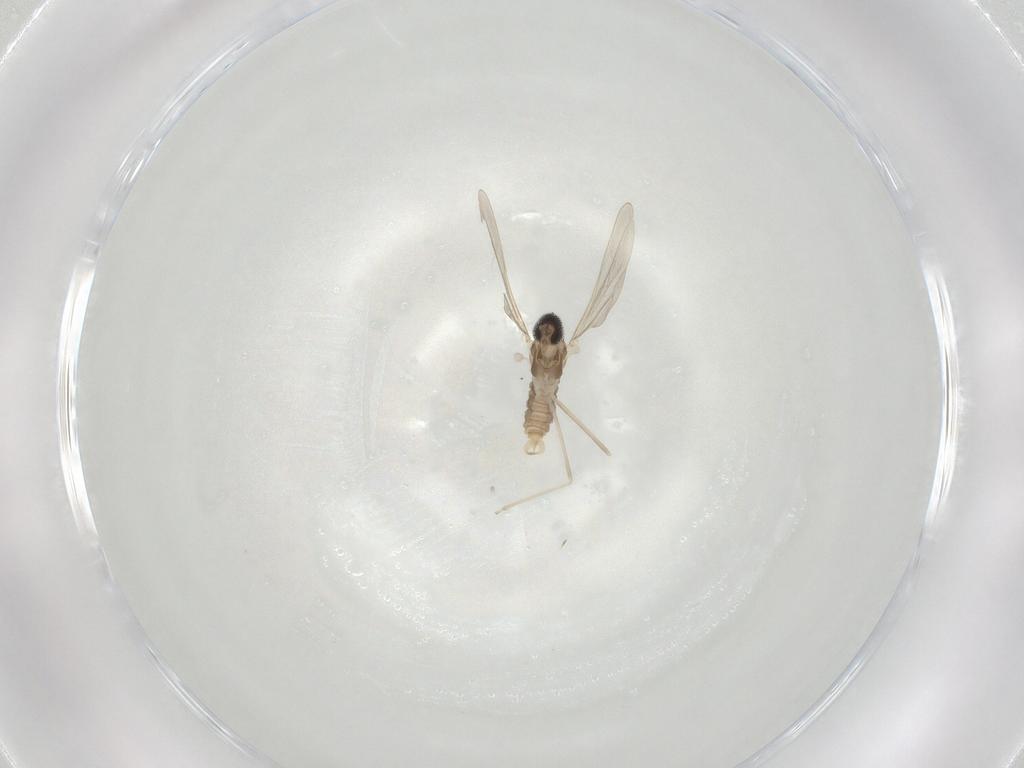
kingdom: Animalia
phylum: Arthropoda
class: Insecta
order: Diptera
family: Cecidomyiidae
